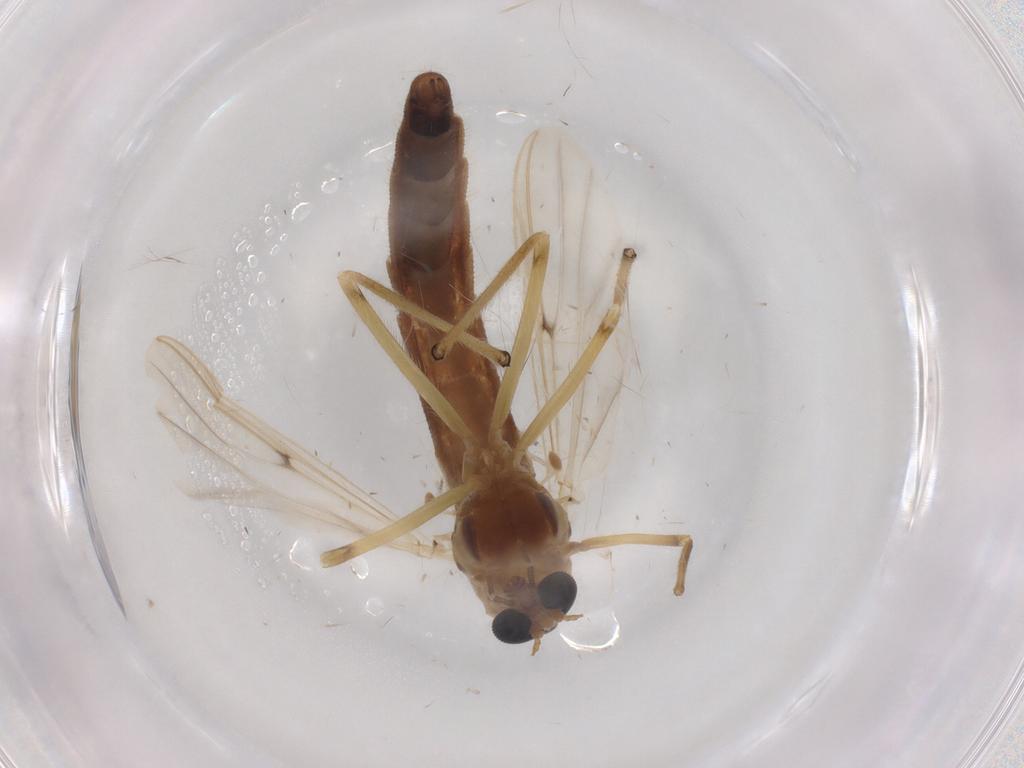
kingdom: Animalia
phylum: Arthropoda
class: Insecta
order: Diptera
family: Chironomidae
